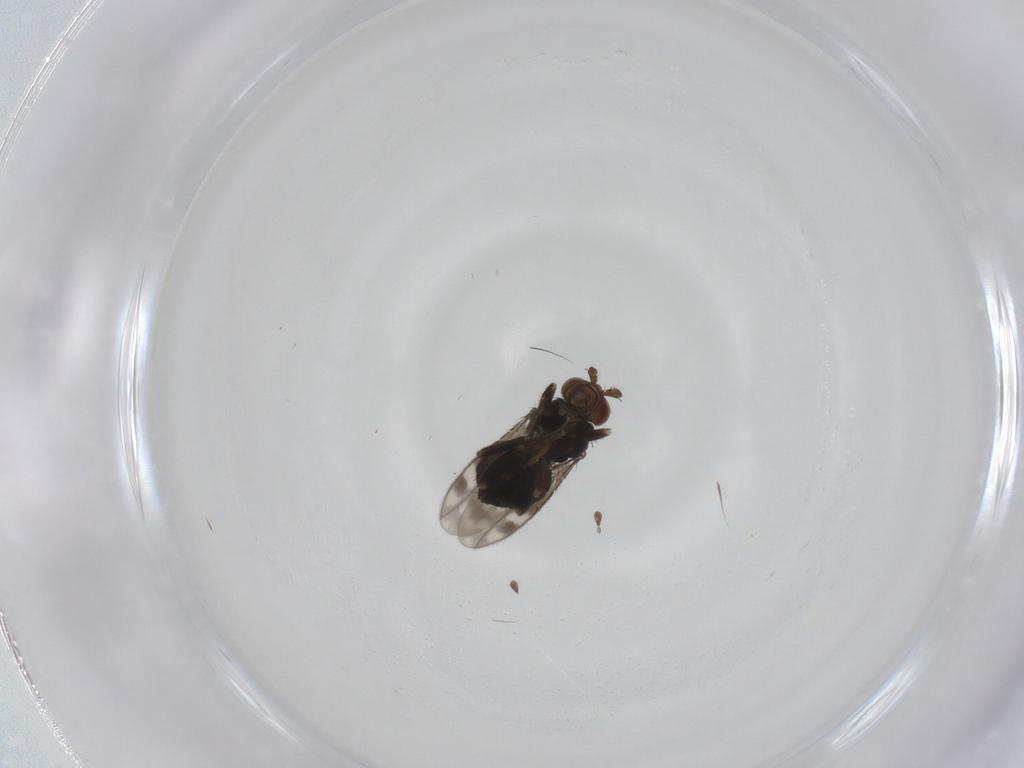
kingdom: Animalia
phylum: Arthropoda
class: Insecta
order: Diptera
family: Sphaeroceridae
